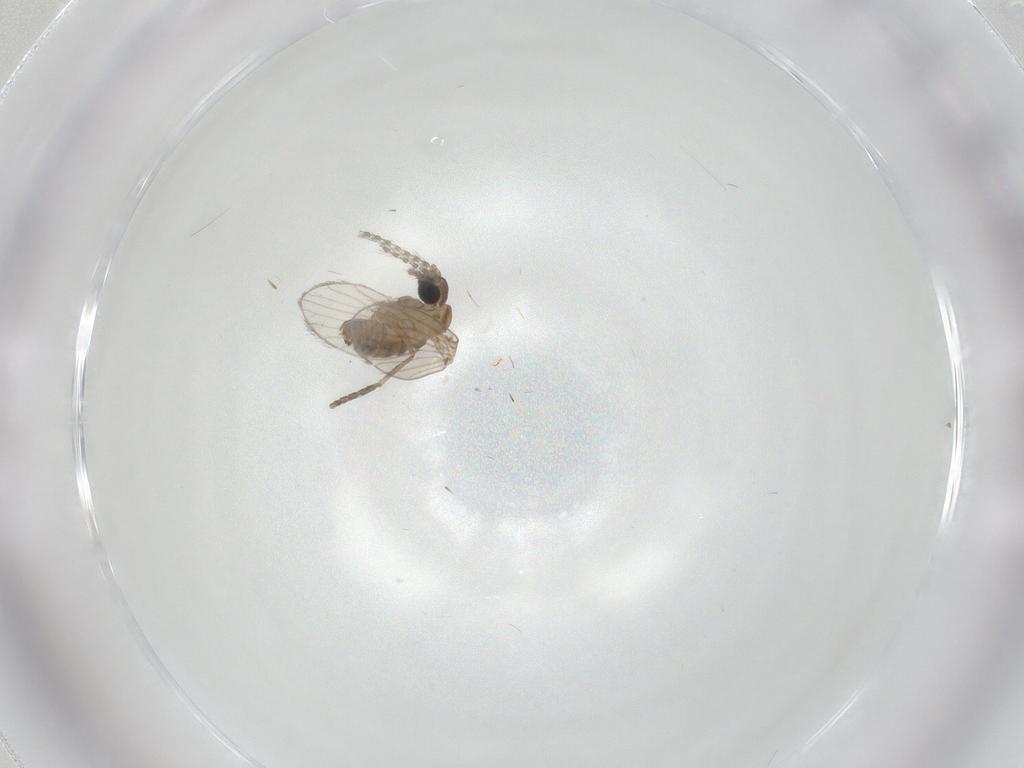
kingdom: Animalia
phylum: Arthropoda
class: Insecta
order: Diptera
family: Psychodidae
